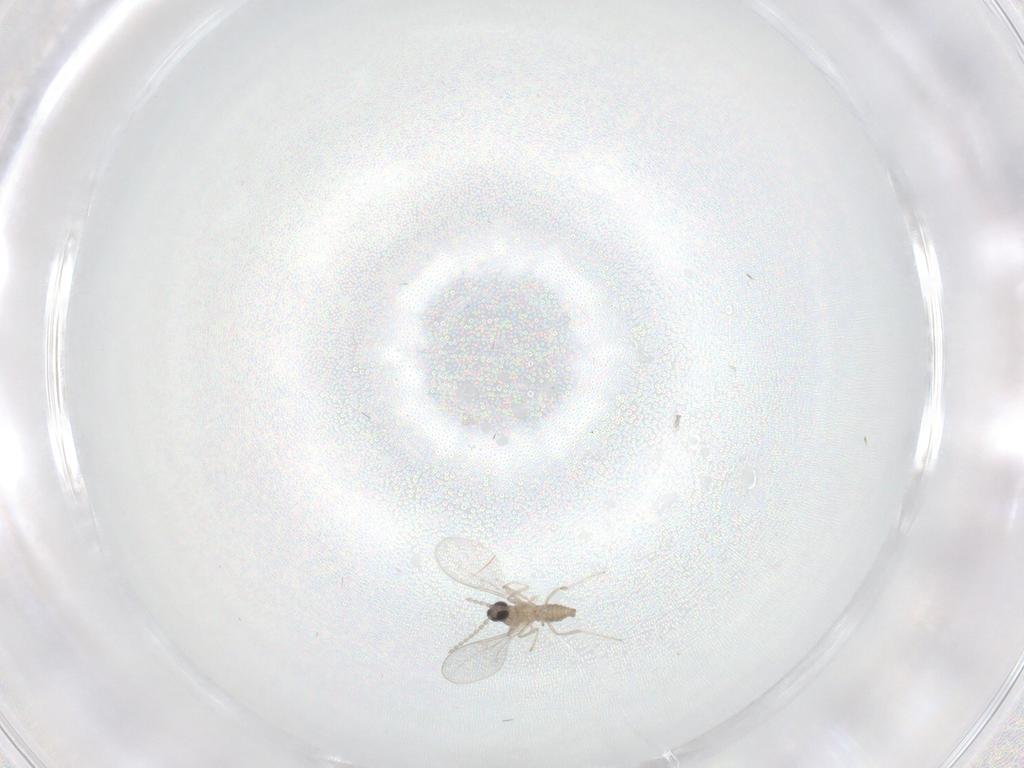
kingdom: Animalia
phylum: Arthropoda
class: Insecta
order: Diptera
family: Cecidomyiidae
